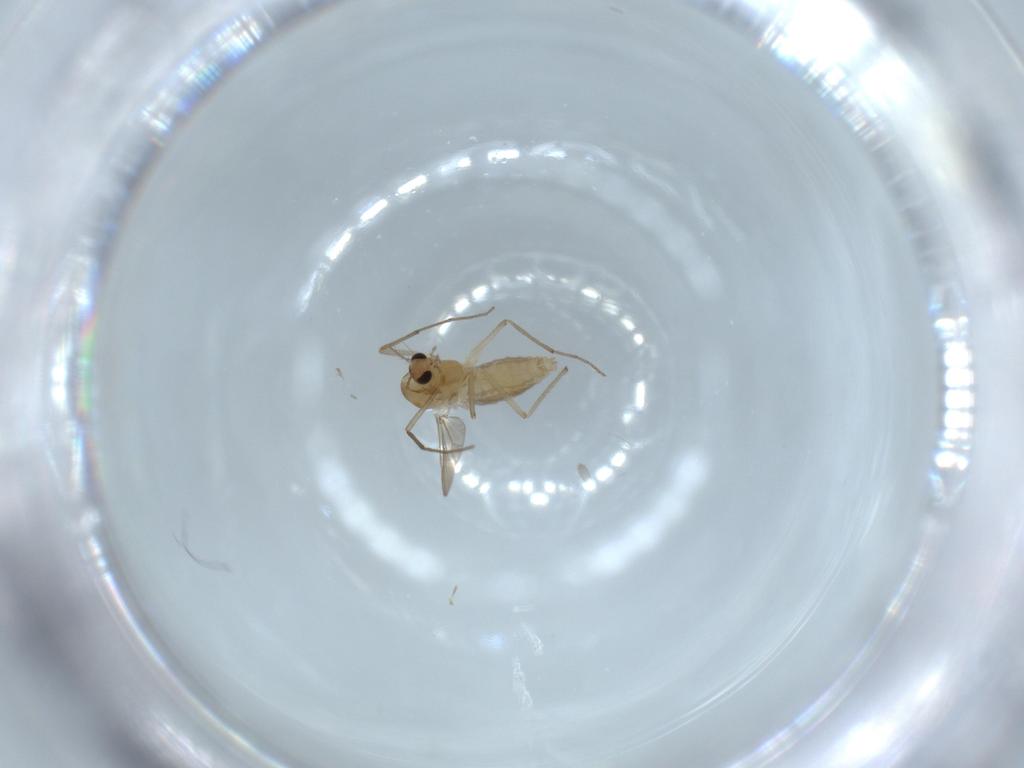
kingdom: Animalia
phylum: Arthropoda
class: Insecta
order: Diptera
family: Chironomidae
